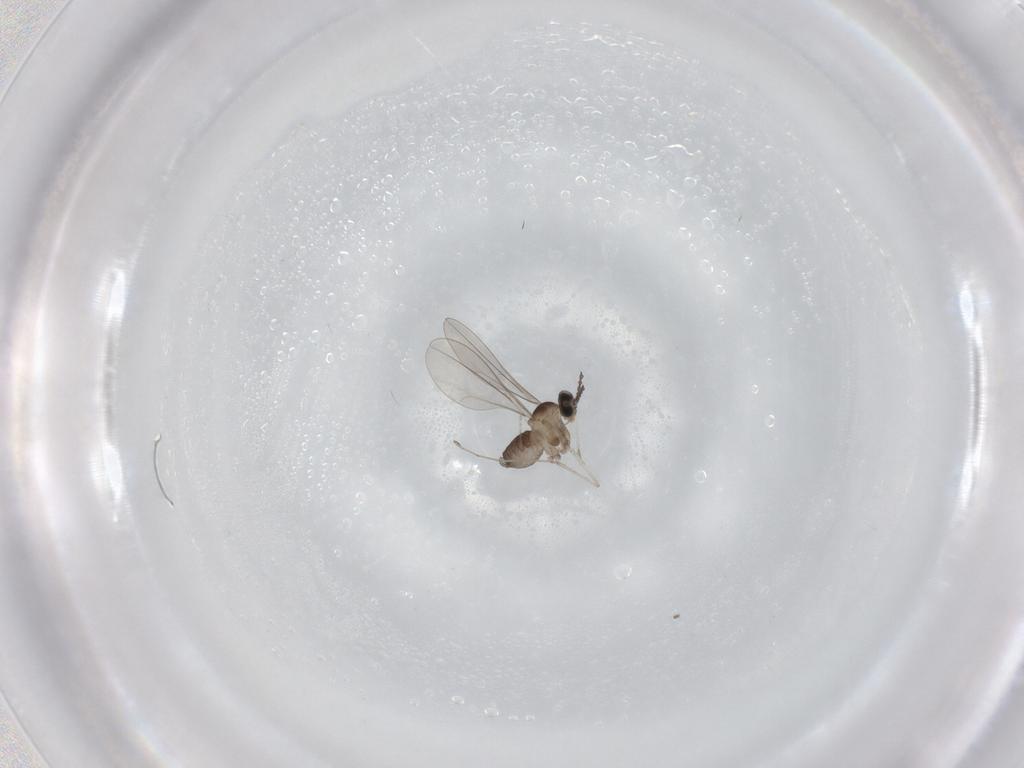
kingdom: Animalia
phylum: Arthropoda
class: Insecta
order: Diptera
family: Cecidomyiidae
